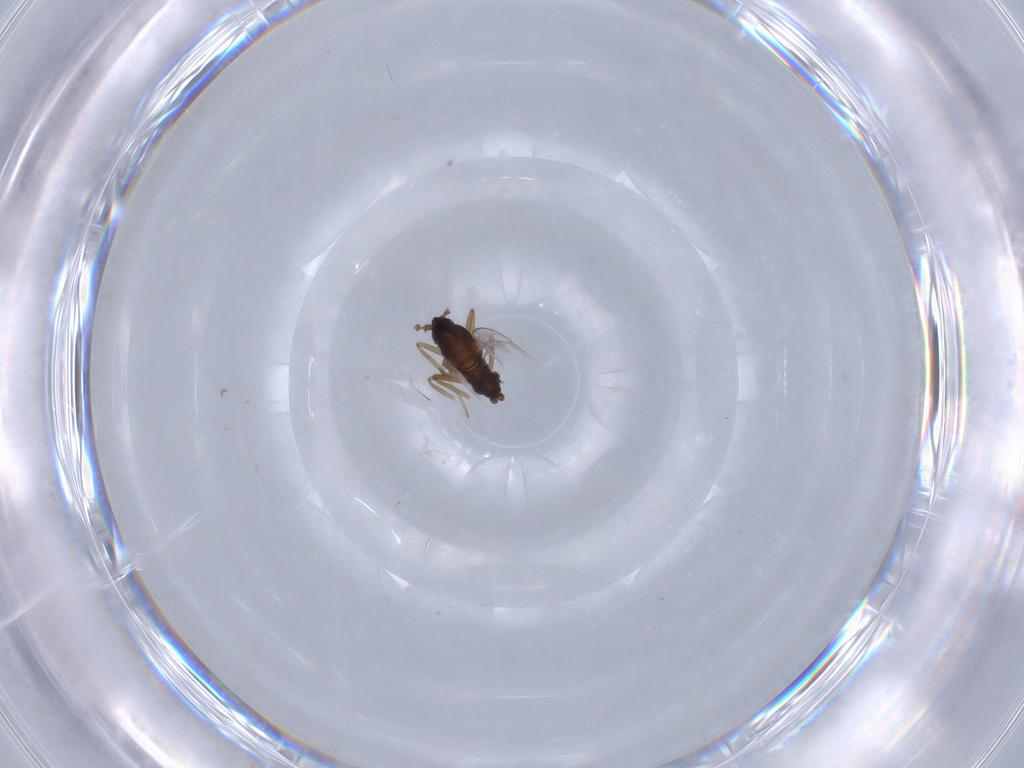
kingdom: Animalia
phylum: Arthropoda
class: Insecta
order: Diptera
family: Cecidomyiidae
